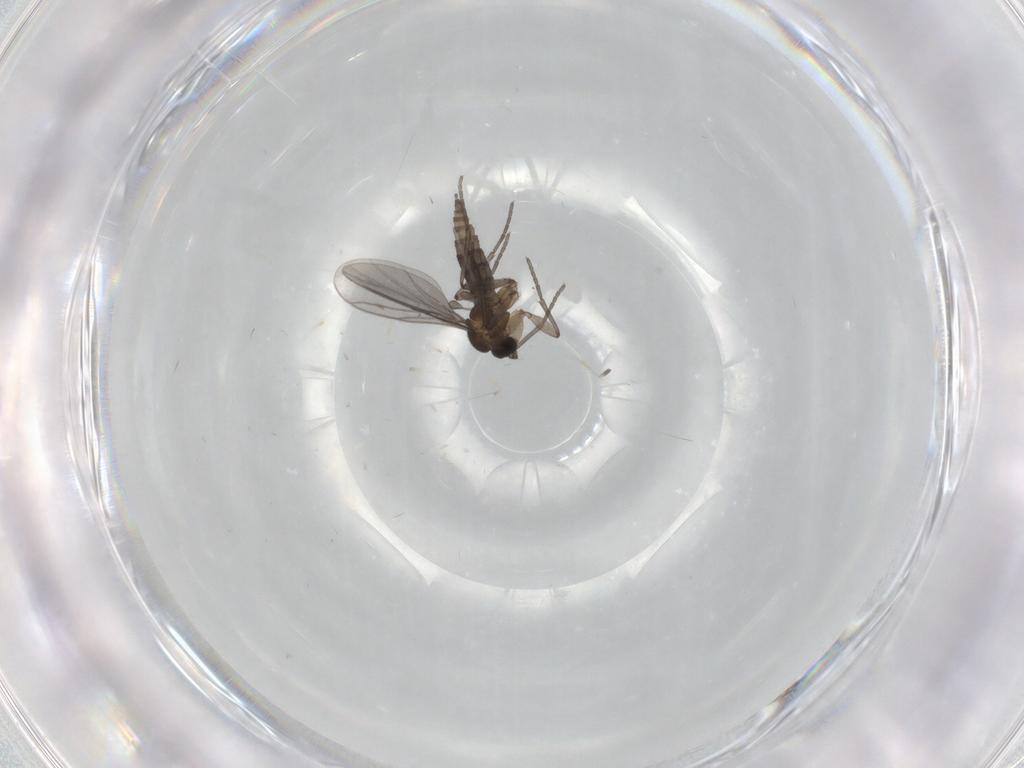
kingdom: Animalia
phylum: Arthropoda
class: Insecta
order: Diptera
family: Sciaridae
